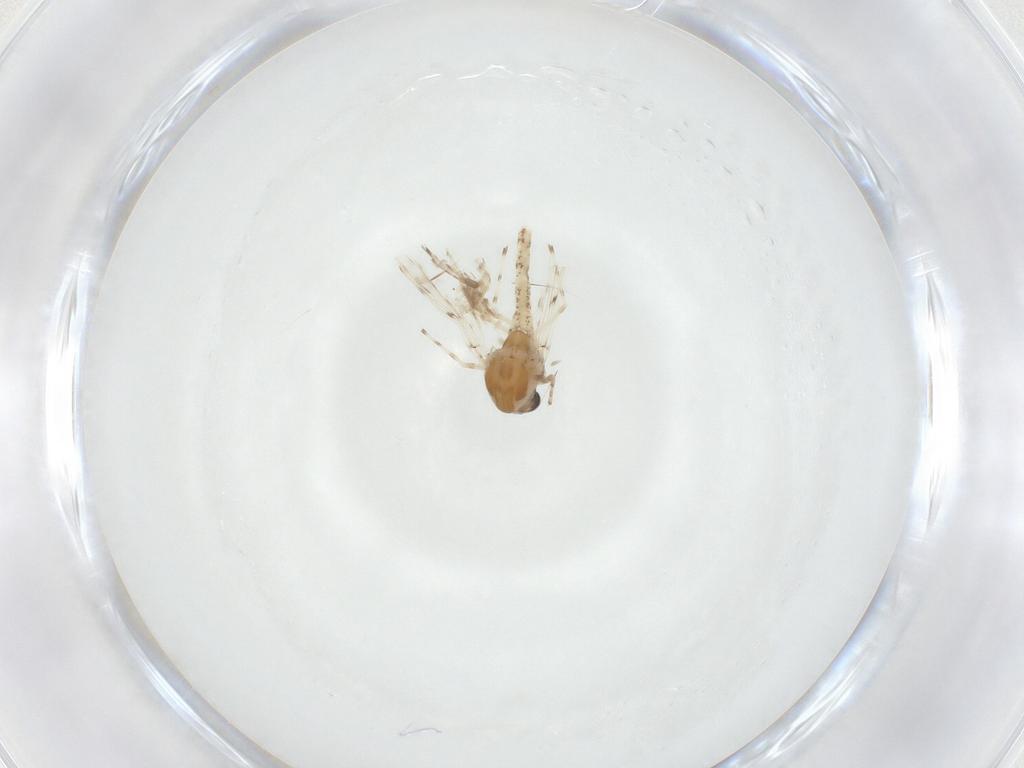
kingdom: Animalia
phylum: Arthropoda
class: Insecta
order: Diptera
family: Chironomidae
